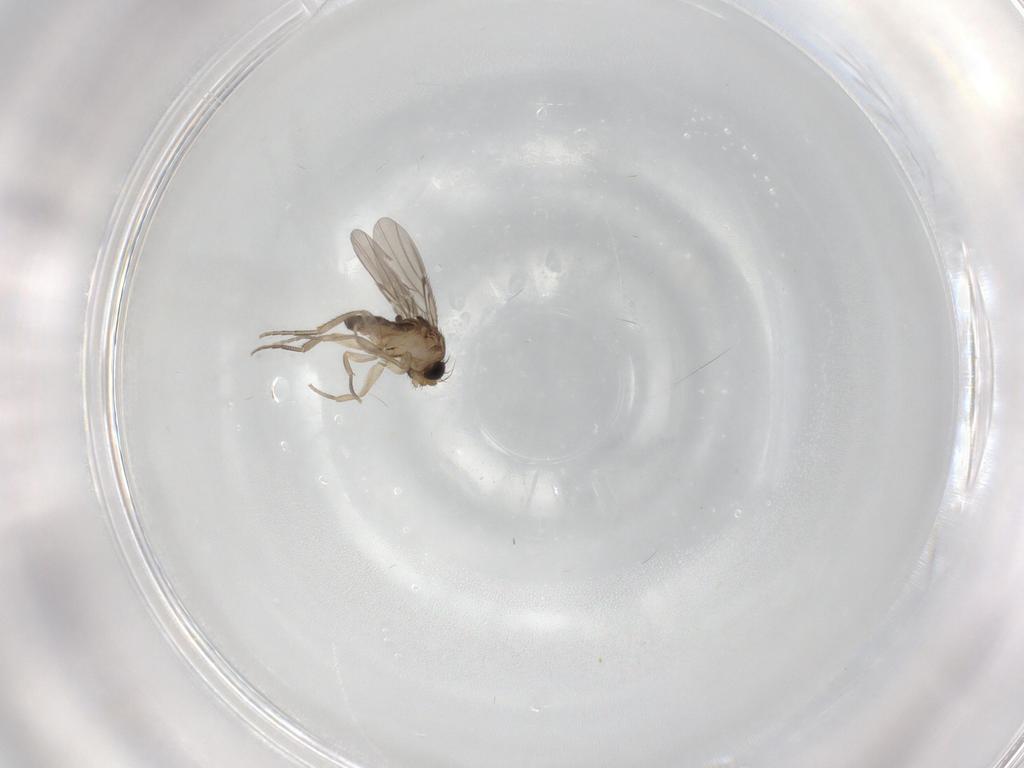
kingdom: Animalia
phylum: Arthropoda
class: Insecta
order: Diptera
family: Phoridae
